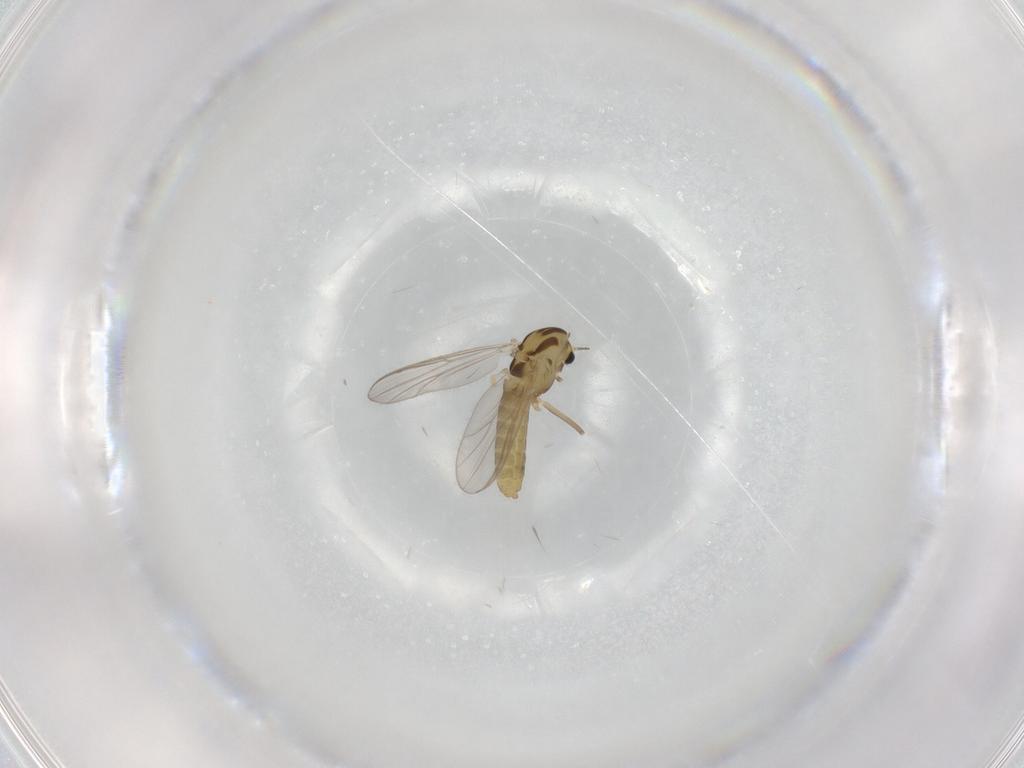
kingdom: Animalia
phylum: Arthropoda
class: Insecta
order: Diptera
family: Chironomidae
